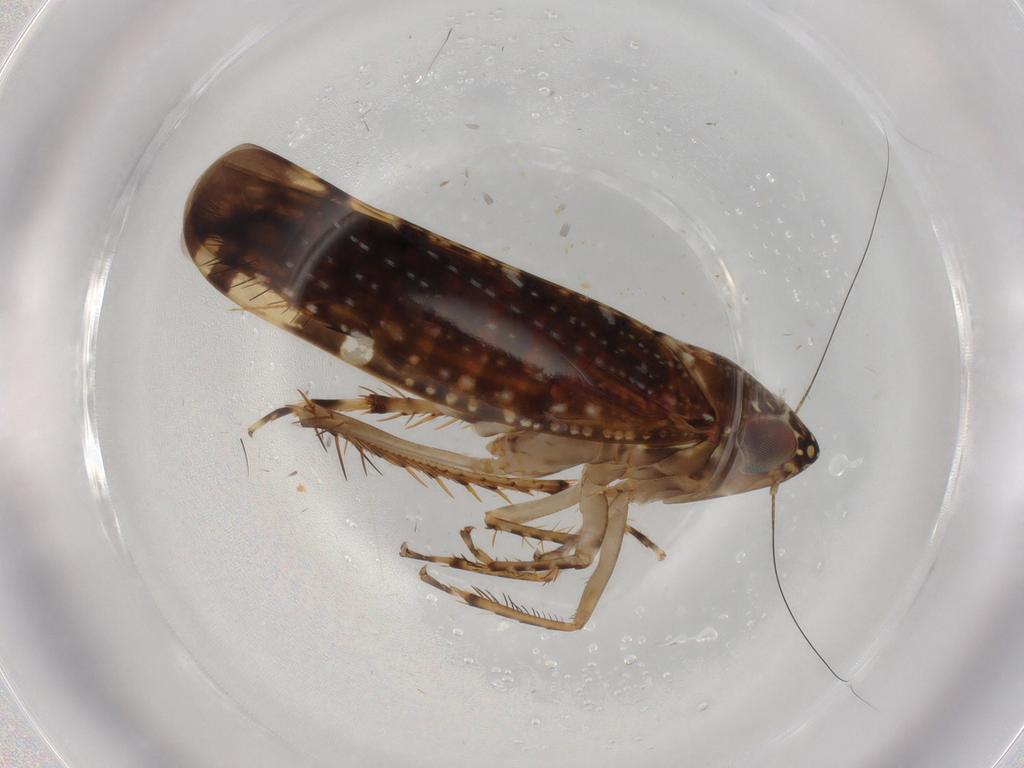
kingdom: Animalia
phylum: Arthropoda
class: Insecta
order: Hemiptera
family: Cicadellidae
